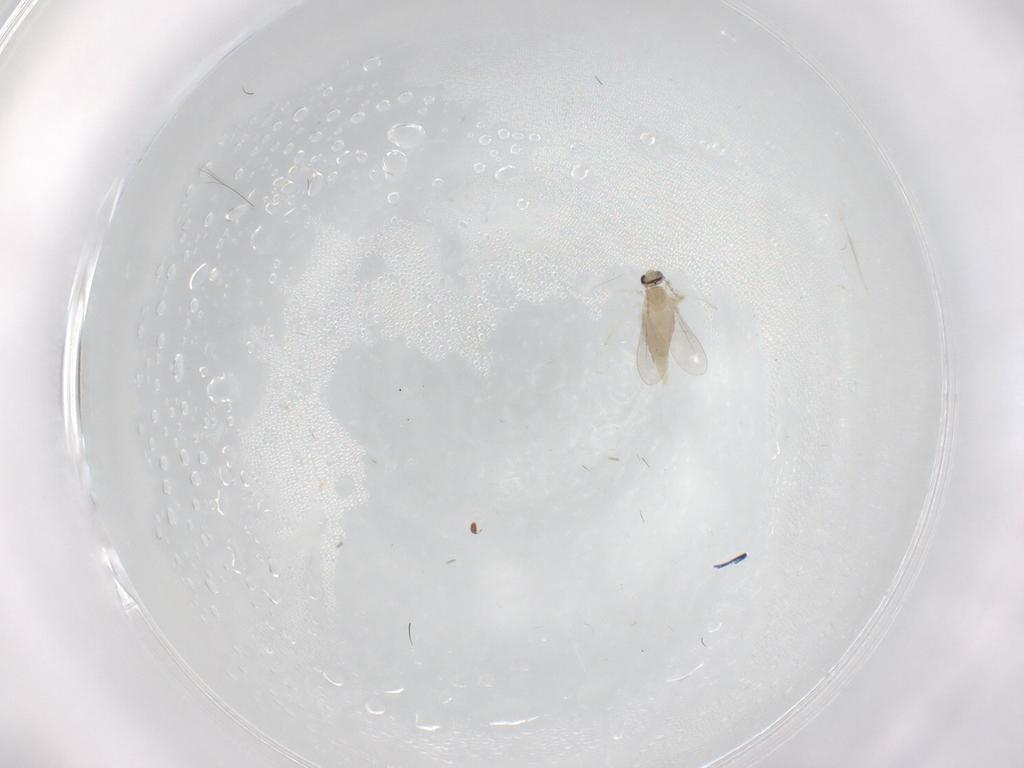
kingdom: Animalia
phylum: Arthropoda
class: Insecta
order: Diptera
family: Cecidomyiidae
